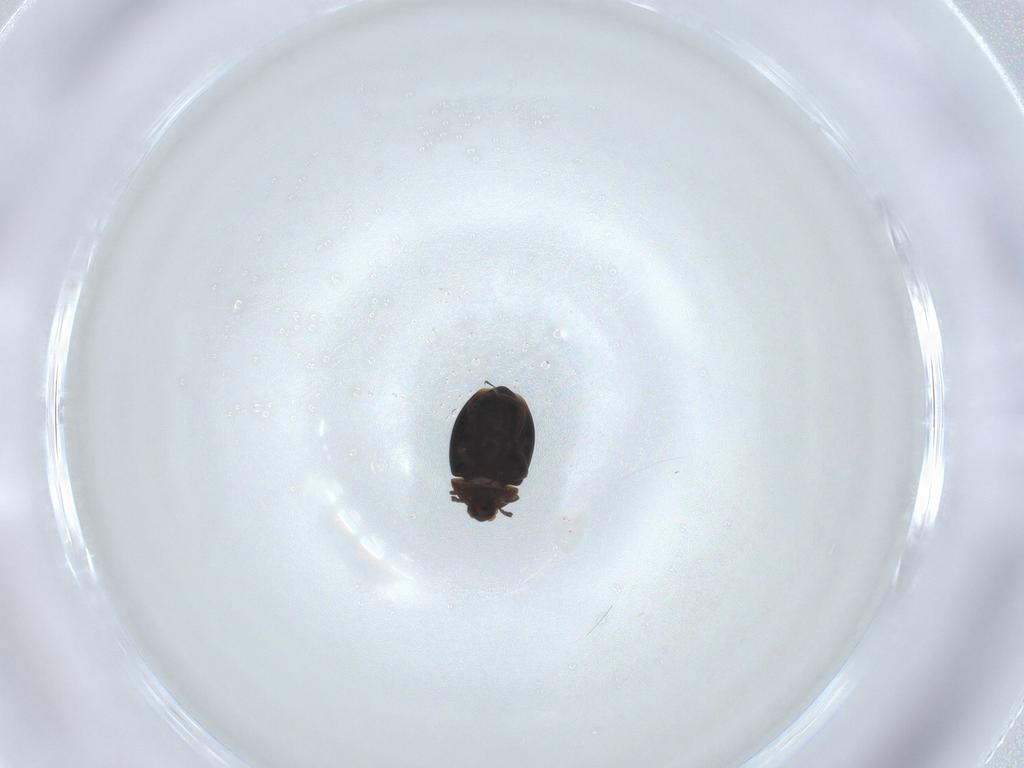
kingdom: Animalia
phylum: Arthropoda
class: Insecta
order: Coleoptera
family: Corylophidae
